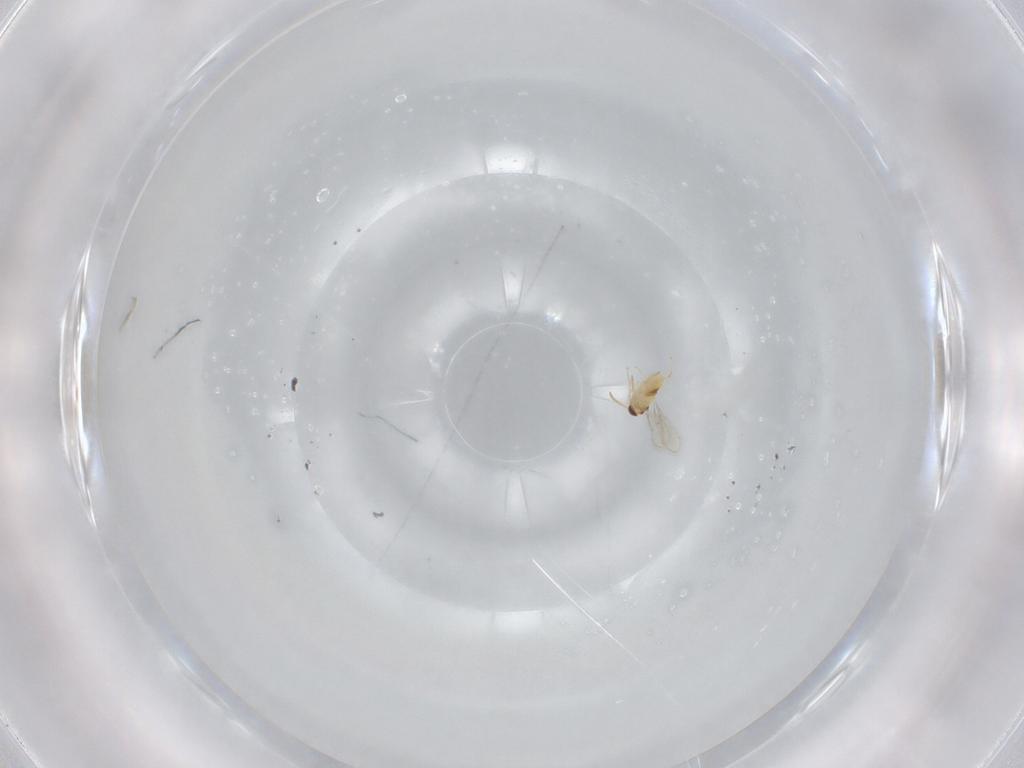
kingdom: Animalia
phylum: Arthropoda
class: Insecta
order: Hymenoptera
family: Aphelinidae
